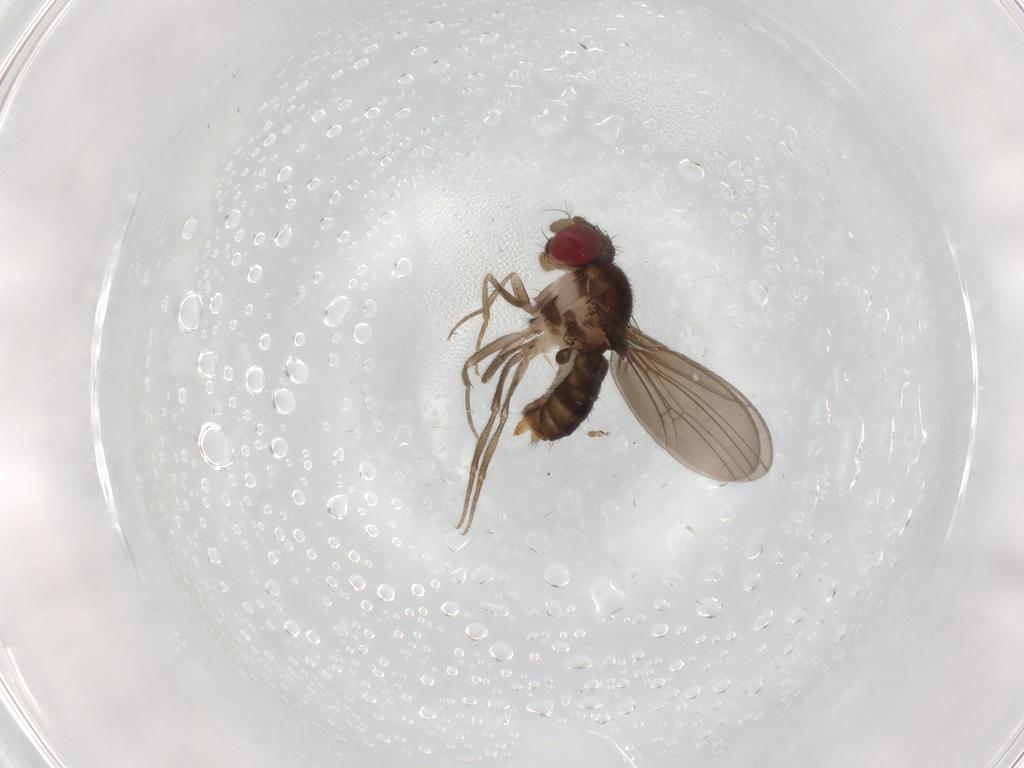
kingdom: Animalia
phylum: Arthropoda
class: Insecta
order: Diptera
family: Drosophilidae
